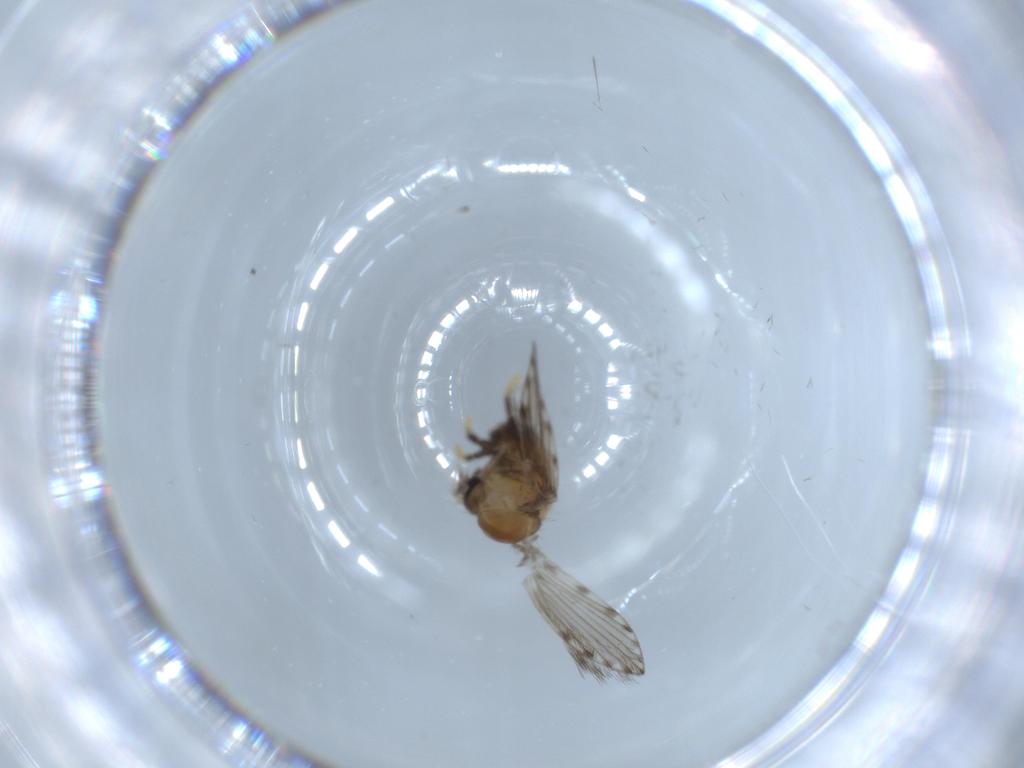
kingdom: Animalia
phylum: Arthropoda
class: Insecta
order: Diptera
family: Psychodidae
